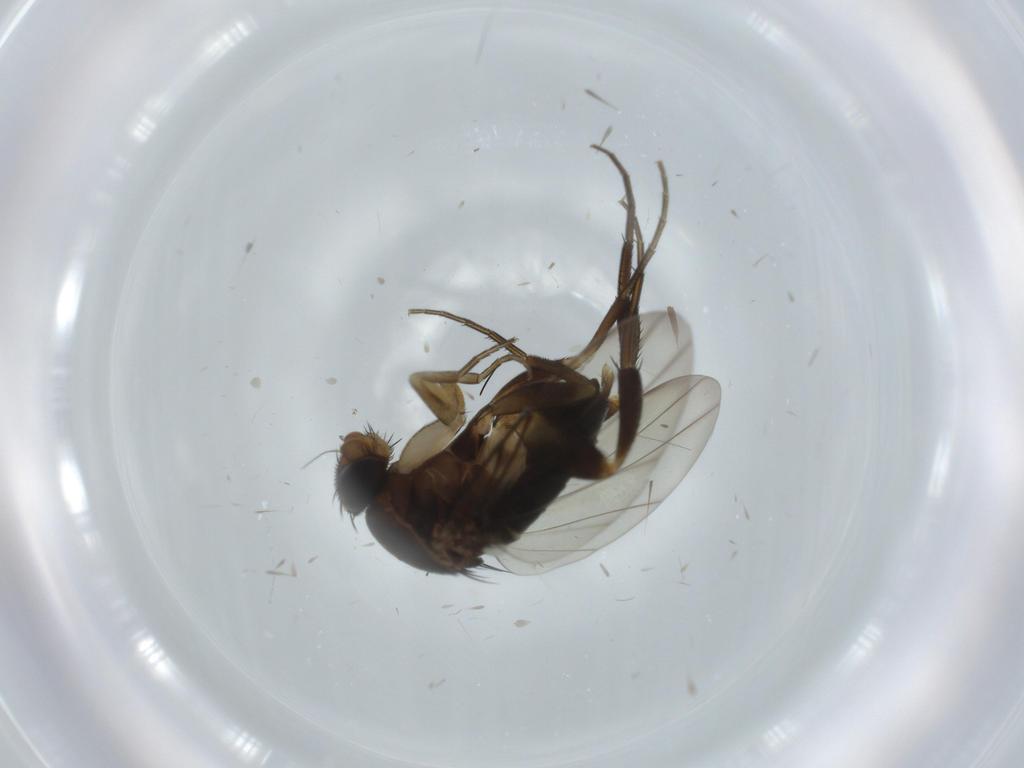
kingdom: Animalia
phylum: Arthropoda
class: Insecta
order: Diptera
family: Phoridae
